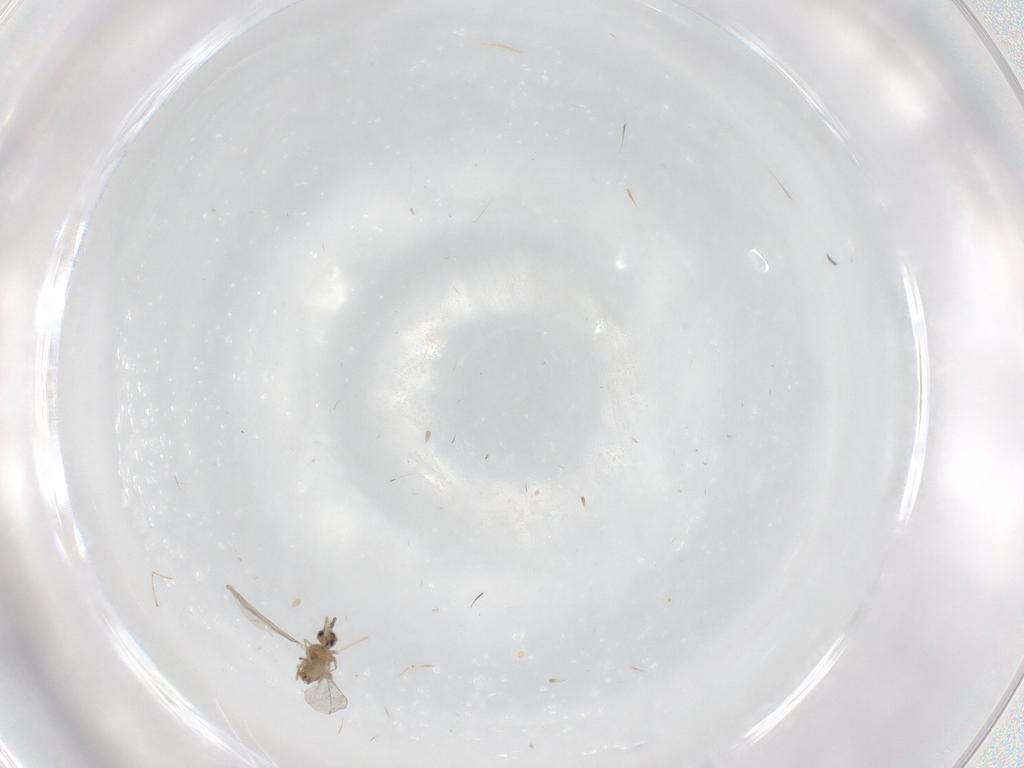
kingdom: Animalia
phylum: Arthropoda
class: Insecta
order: Diptera
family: Cecidomyiidae
